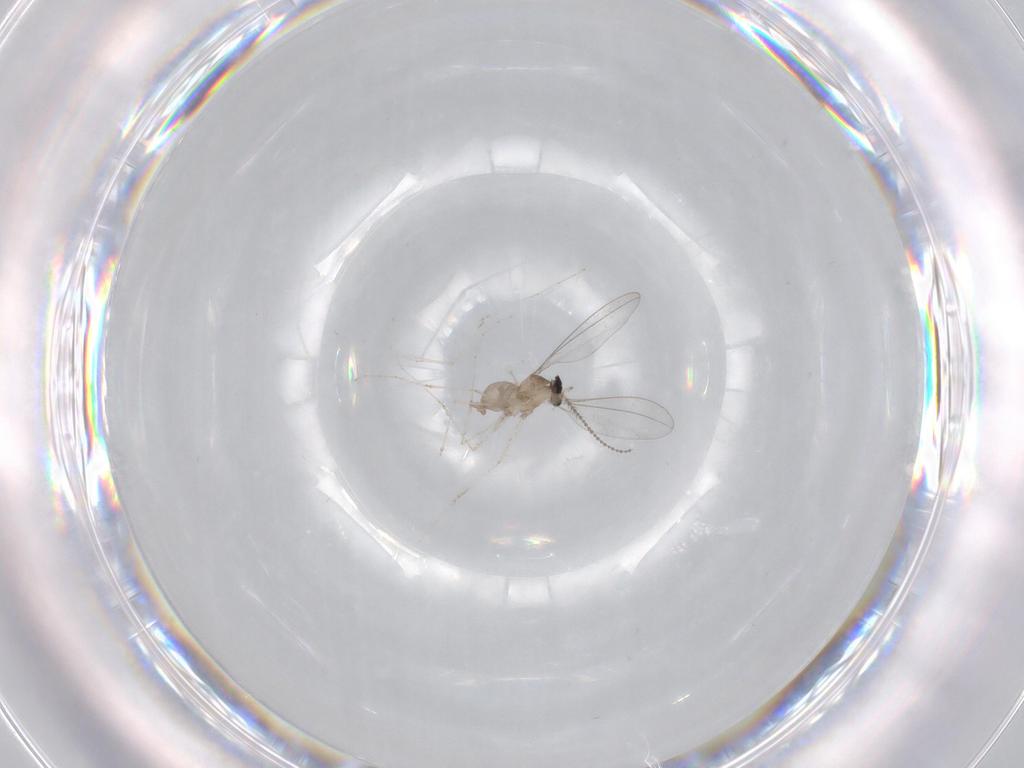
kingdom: Animalia
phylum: Arthropoda
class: Insecta
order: Diptera
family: Cecidomyiidae
